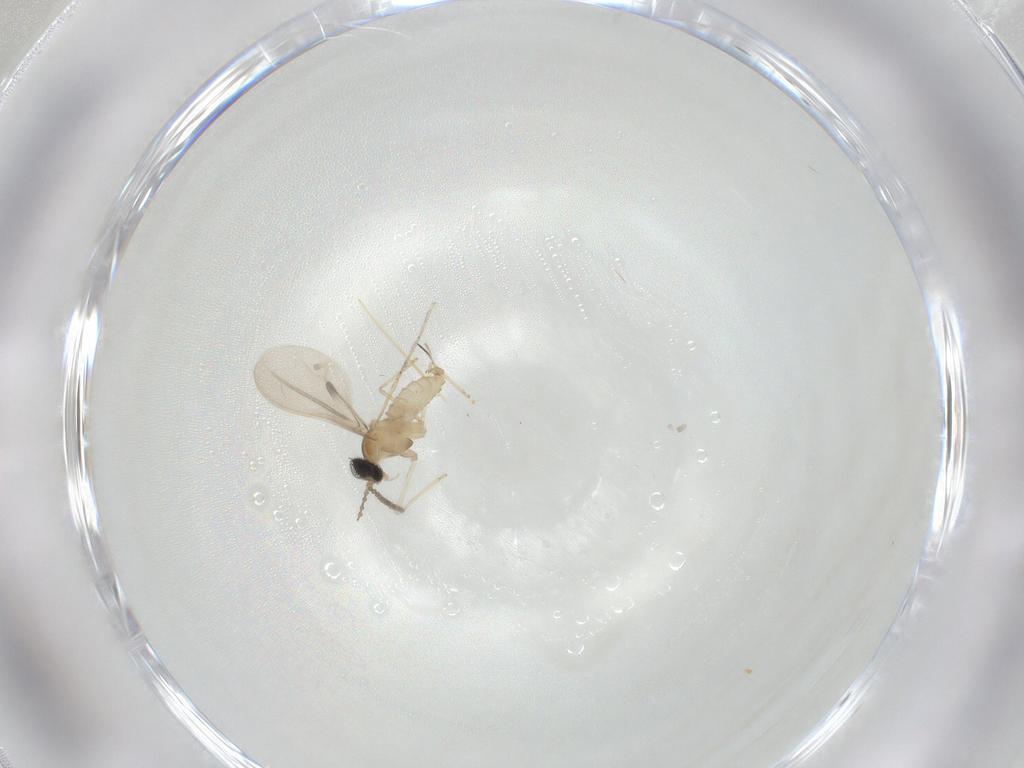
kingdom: Animalia
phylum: Arthropoda
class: Insecta
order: Diptera
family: Cecidomyiidae
